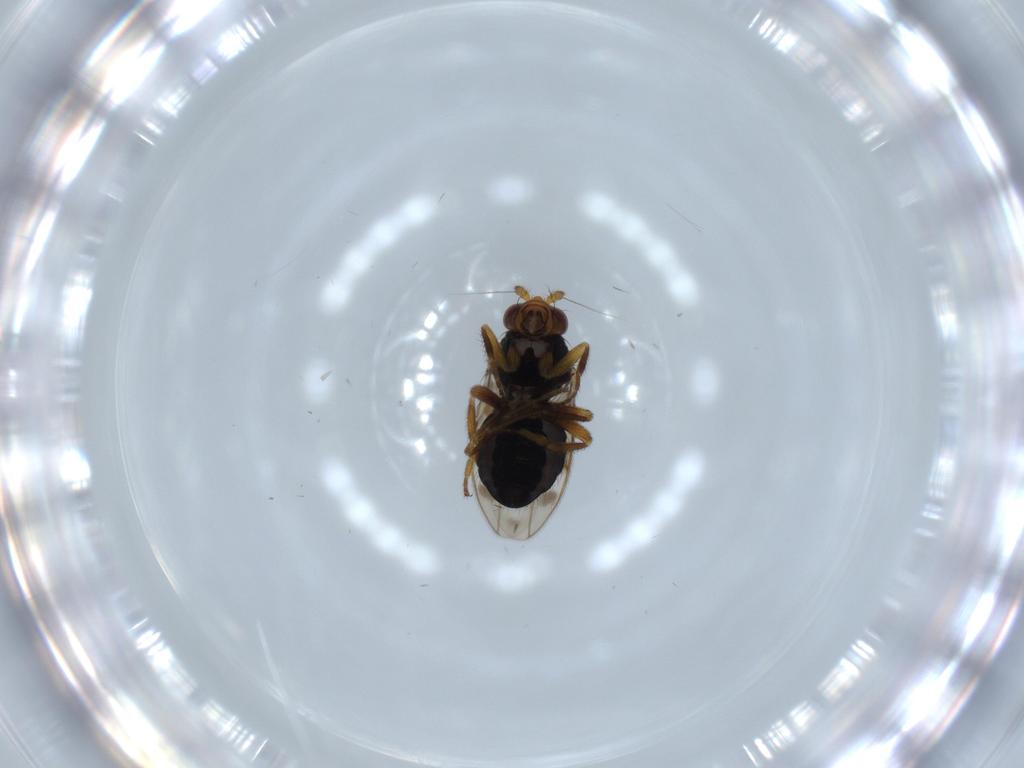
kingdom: Animalia
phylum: Arthropoda
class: Insecta
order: Diptera
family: Sphaeroceridae
